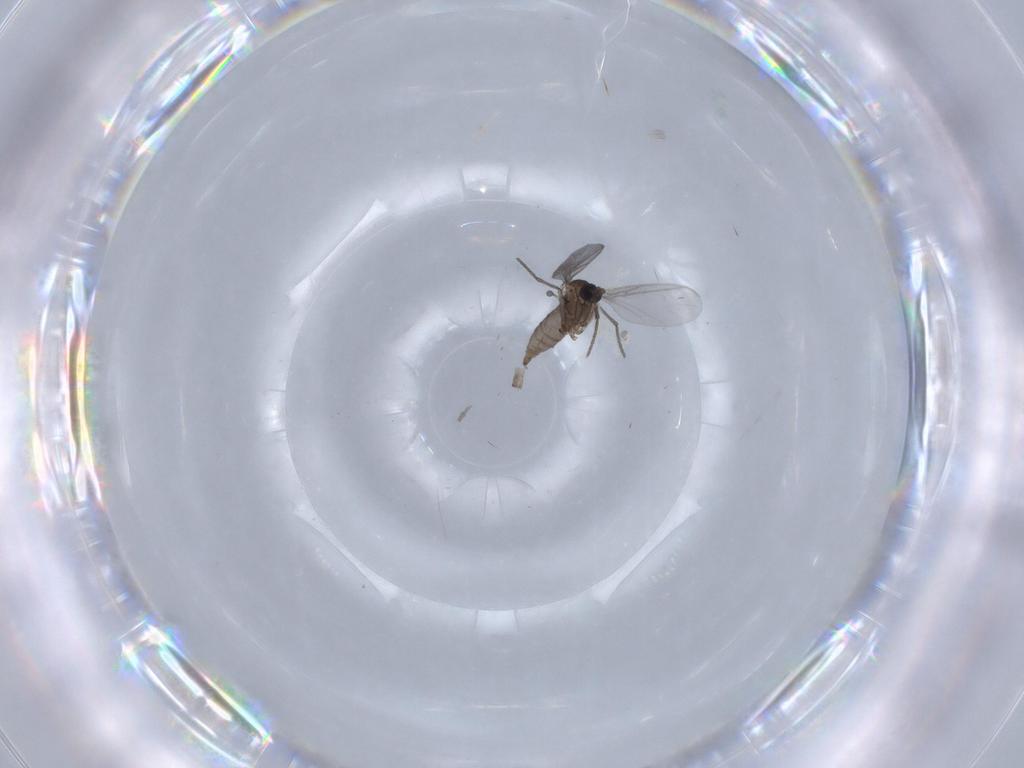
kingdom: Animalia
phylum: Arthropoda
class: Insecta
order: Diptera
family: Sciaridae
